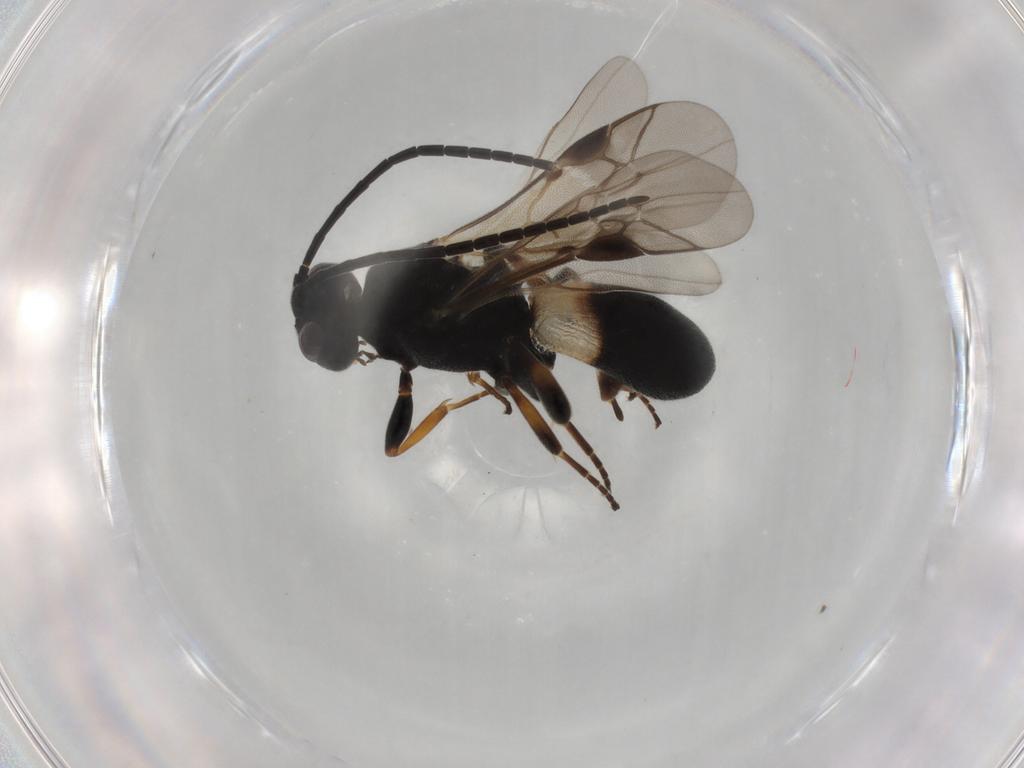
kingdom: Animalia
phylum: Arthropoda
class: Insecta
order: Hymenoptera
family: Braconidae
